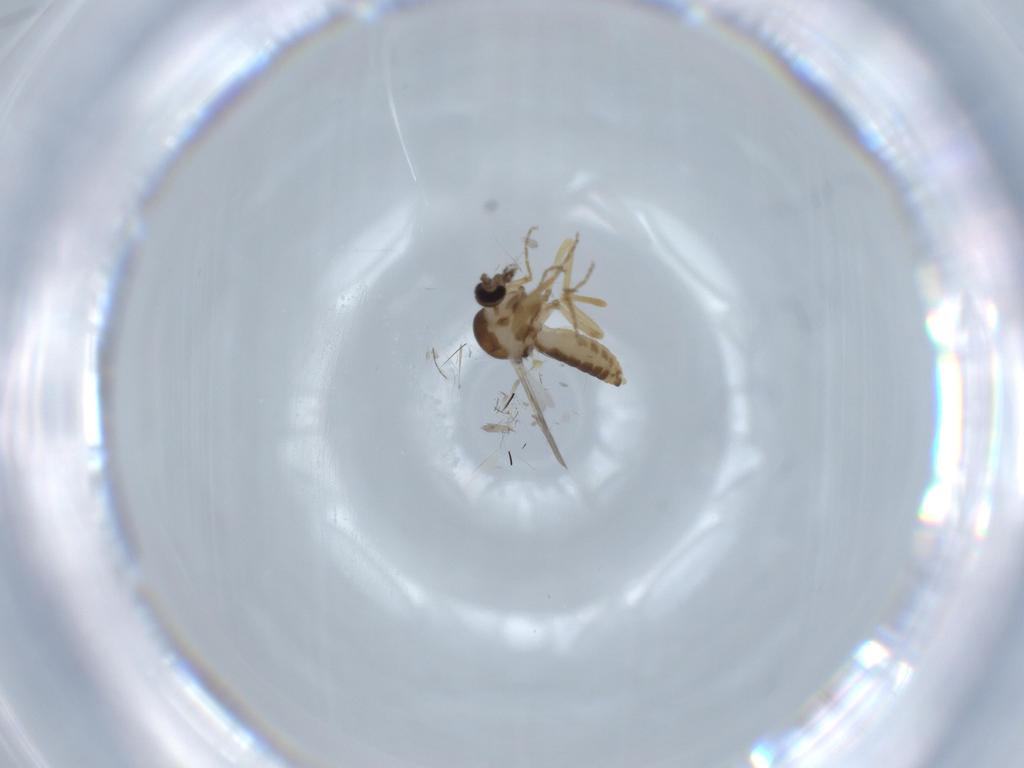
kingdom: Animalia
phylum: Arthropoda
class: Insecta
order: Diptera
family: Ceratopogonidae
